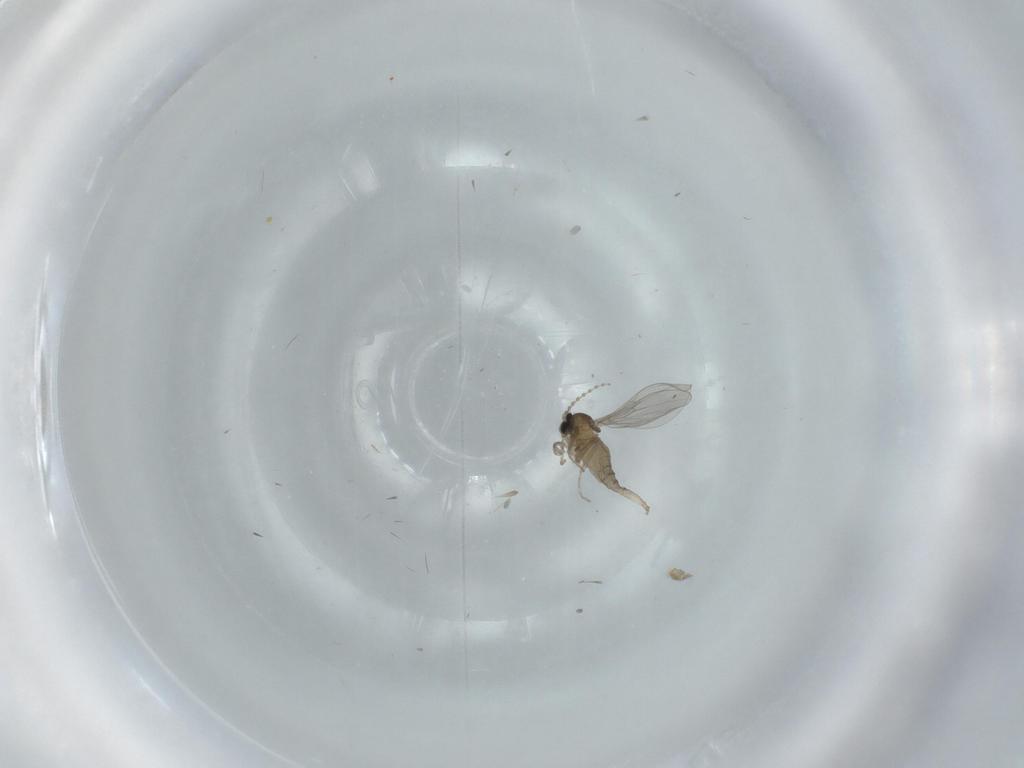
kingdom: Animalia
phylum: Arthropoda
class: Insecta
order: Diptera
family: Cecidomyiidae
